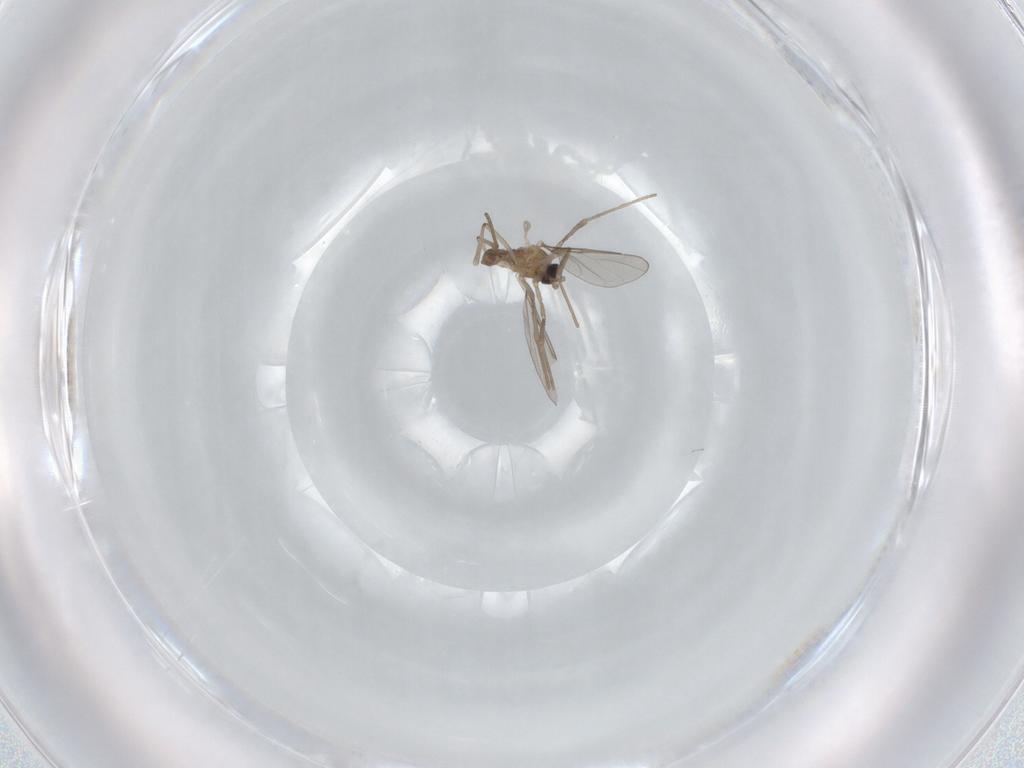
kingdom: Animalia
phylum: Arthropoda
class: Insecta
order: Diptera
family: Cecidomyiidae
